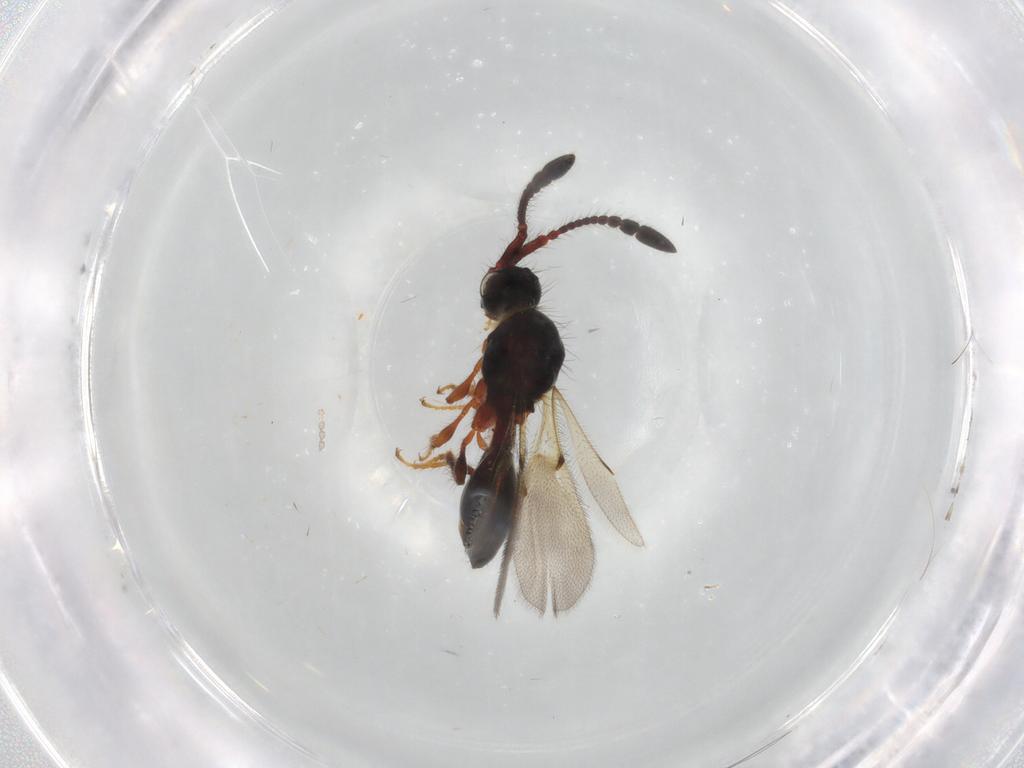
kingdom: Animalia
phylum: Arthropoda
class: Insecta
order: Hymenoptera
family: Diapriidae
